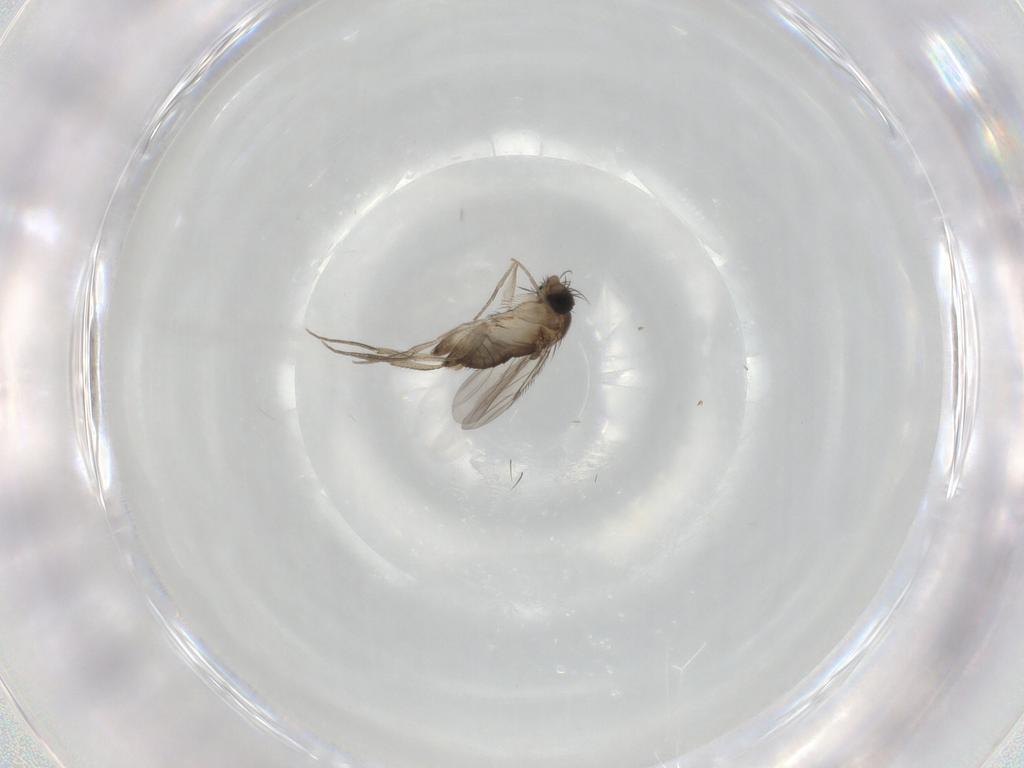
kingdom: Animalia
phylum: Arthropoda
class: Insecta
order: Diptera
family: Phoridae
